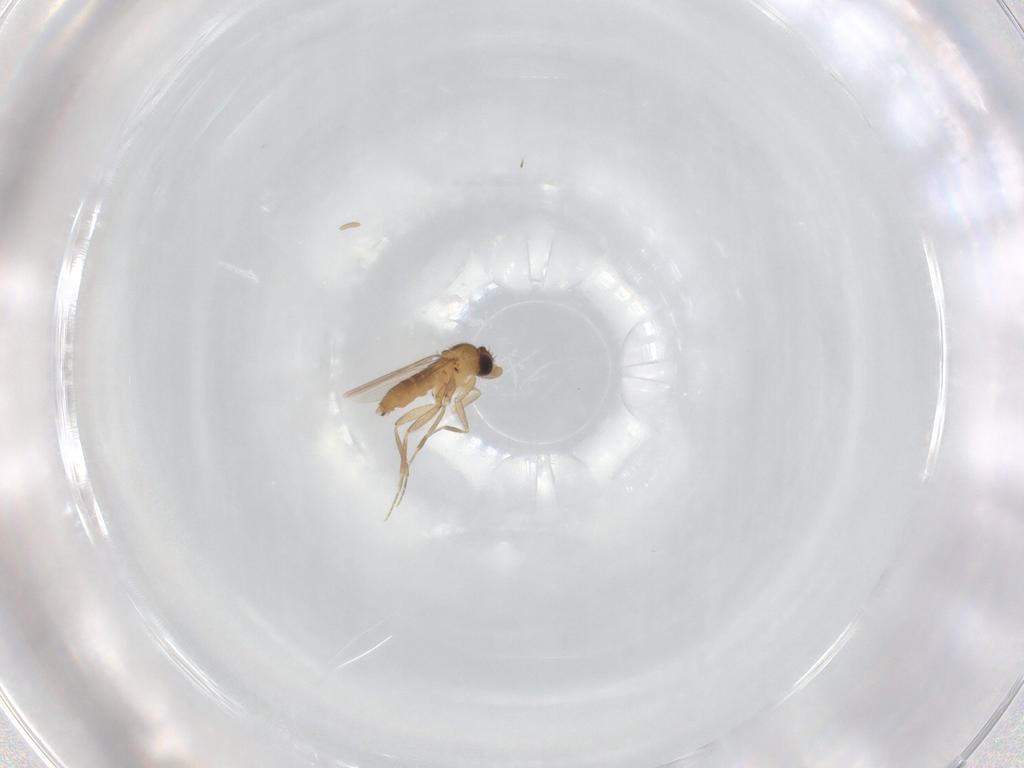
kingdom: Animalia
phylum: Arthropoda
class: Insecta
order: Diptera
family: Phoridae
